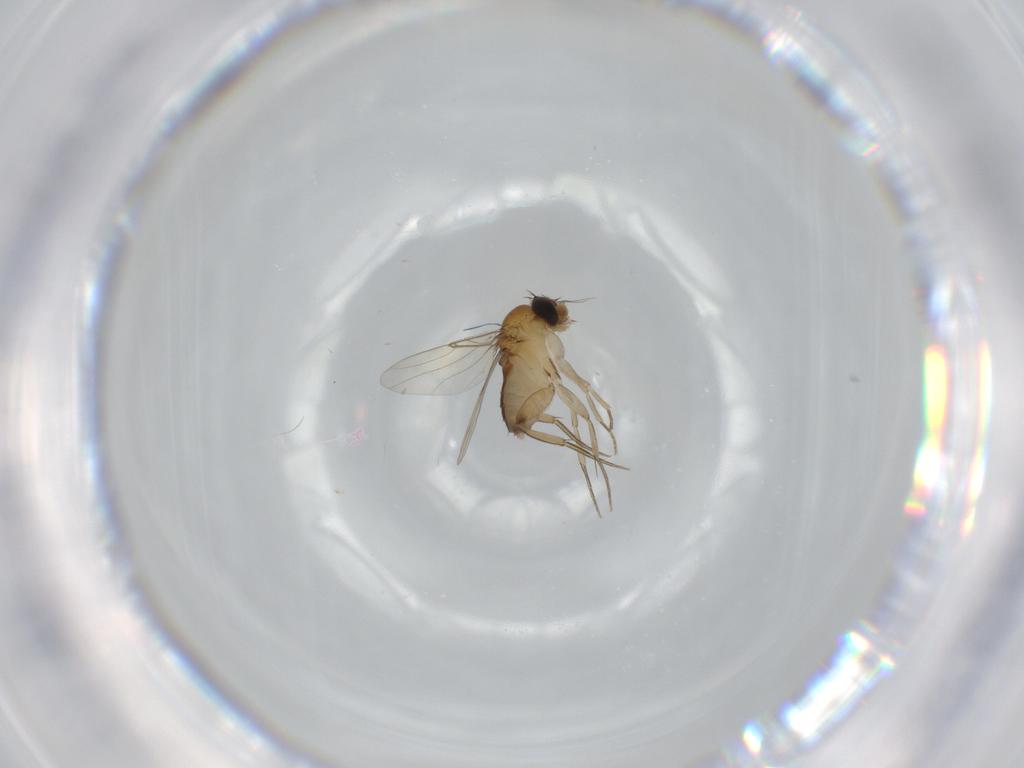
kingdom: Animalia
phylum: Arthropoda
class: Insecta
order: Diptera
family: Phoridae
